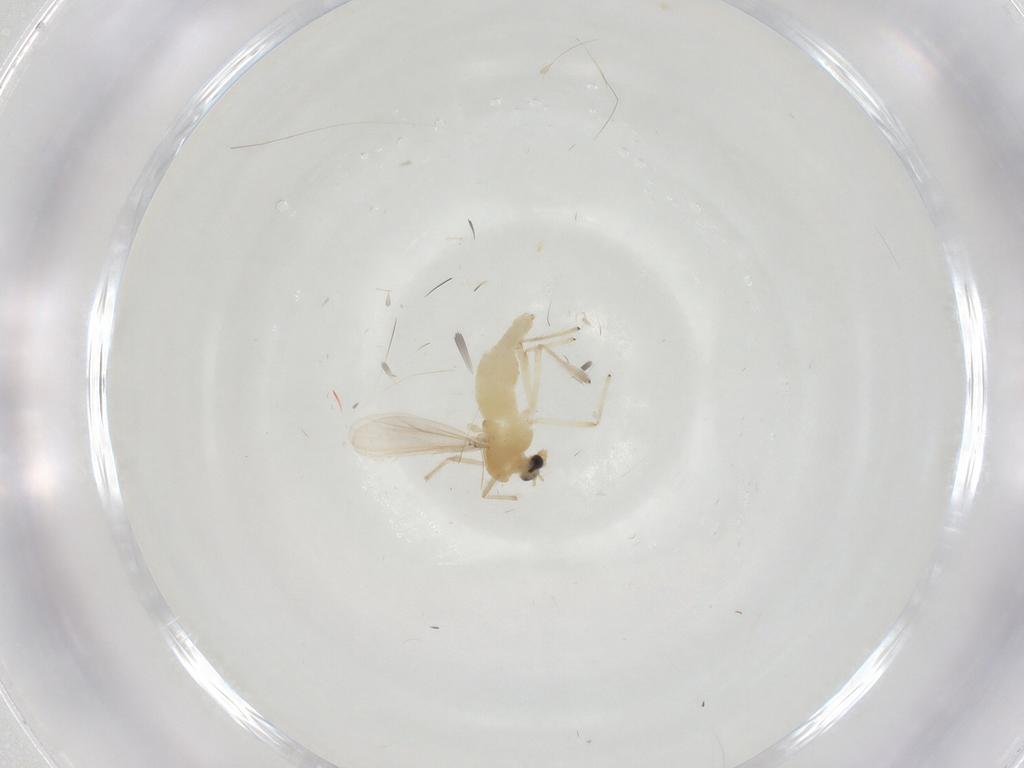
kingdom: Animalia
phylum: Arthropoda
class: Insecta
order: Diptera
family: Chironomidae
